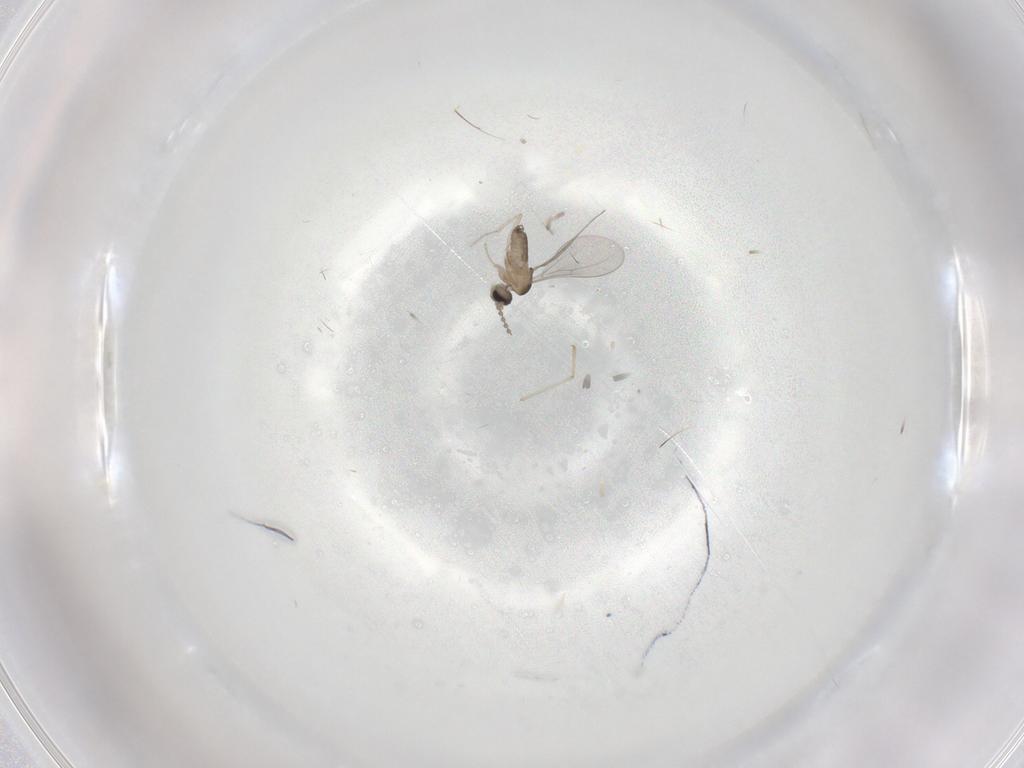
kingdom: Animalia
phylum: Arthropoda
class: Insecta
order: Diptera
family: Cecidomyiidae
